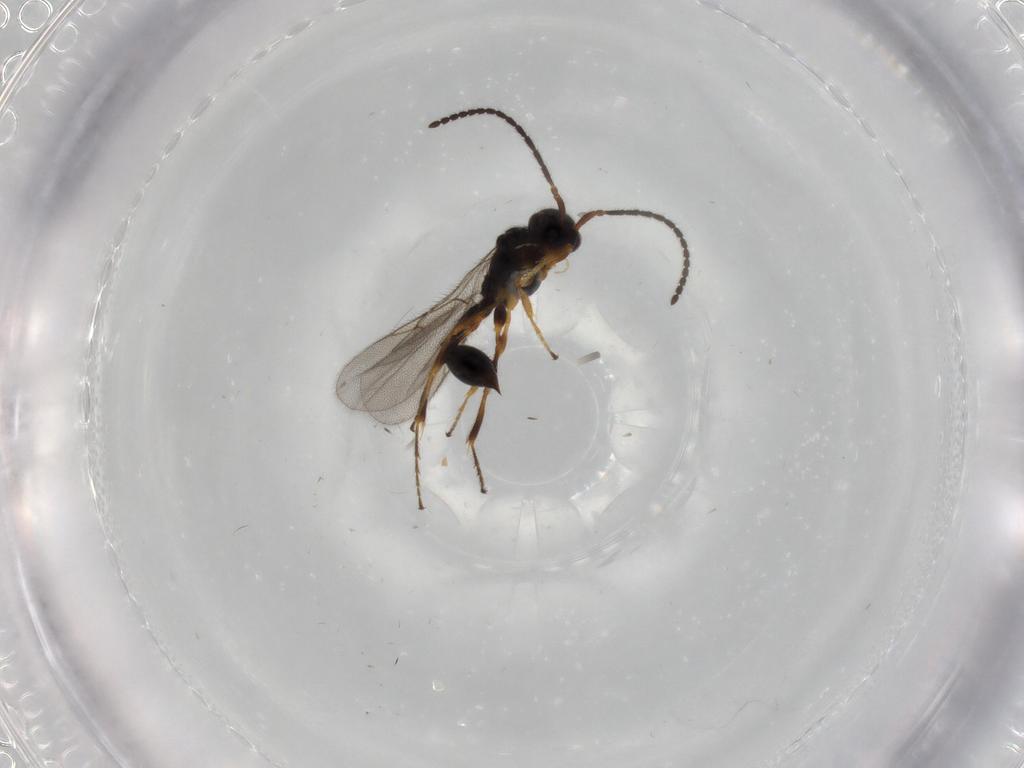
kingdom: Animalia
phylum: Arthropoda
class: Insecta
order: Hymenoptera
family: Diapriidae
